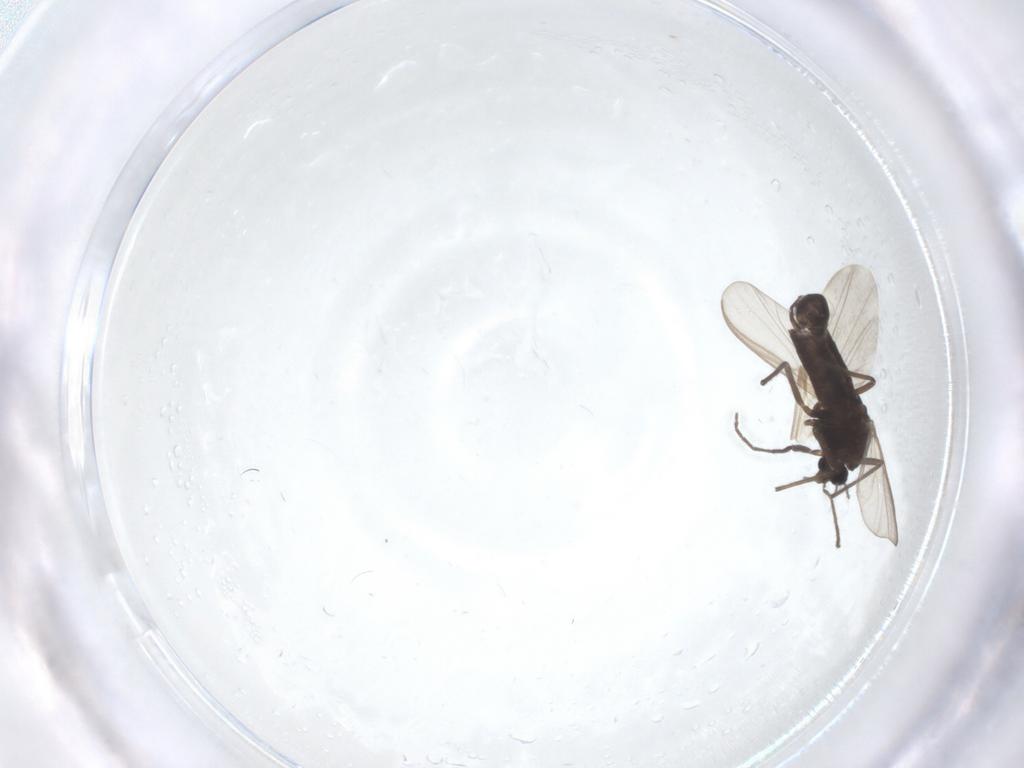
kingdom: Animalia
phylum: Arthropoda
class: Insecta
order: Diptera
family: Ceratopogonidae
